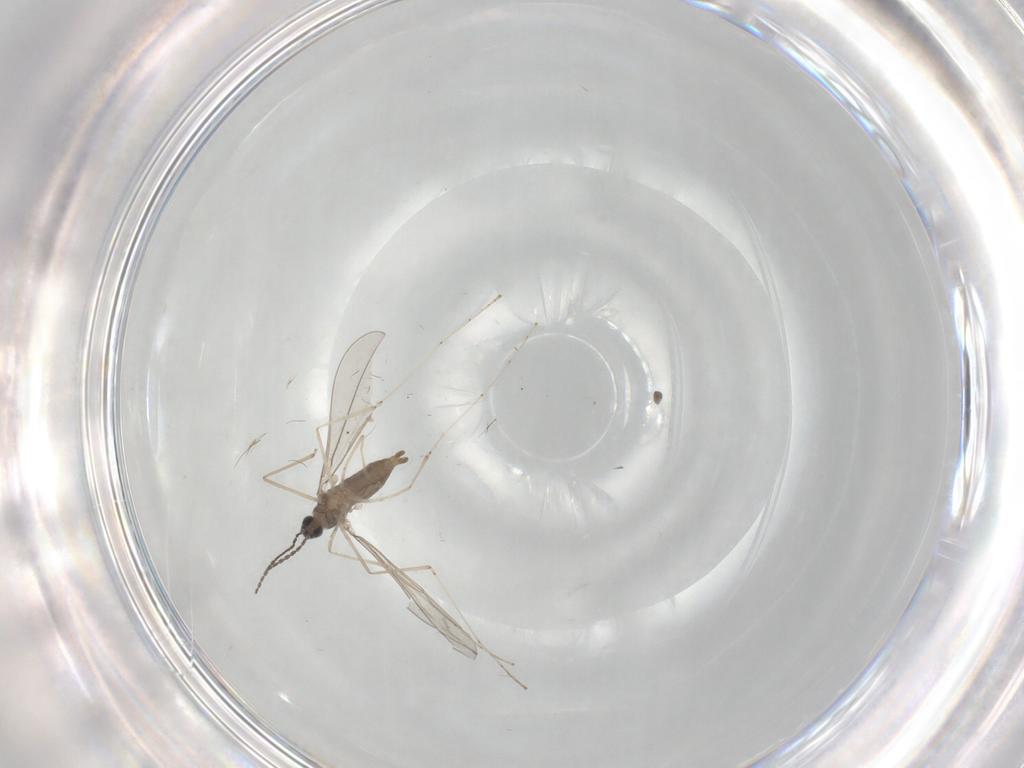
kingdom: Animalia
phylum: Arthropoda
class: Insecta
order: Diptera
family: Cecidomyiidae
